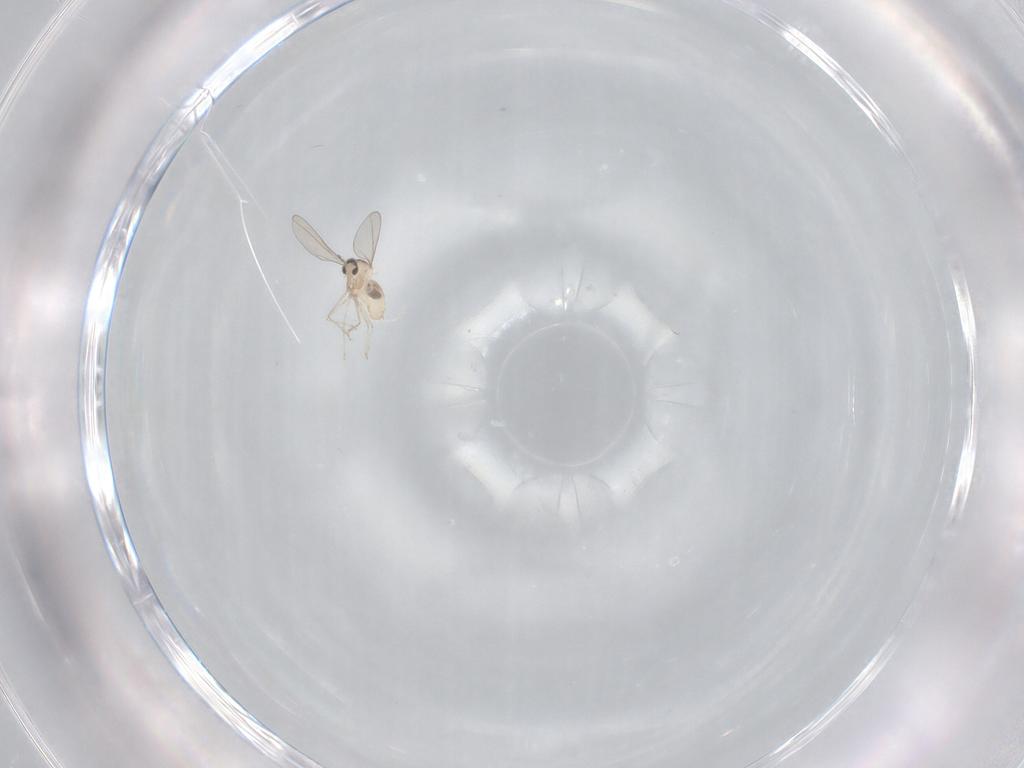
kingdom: Animalia
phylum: Arthropoda
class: Insecta
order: Diptera
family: Cecidomyiidae
